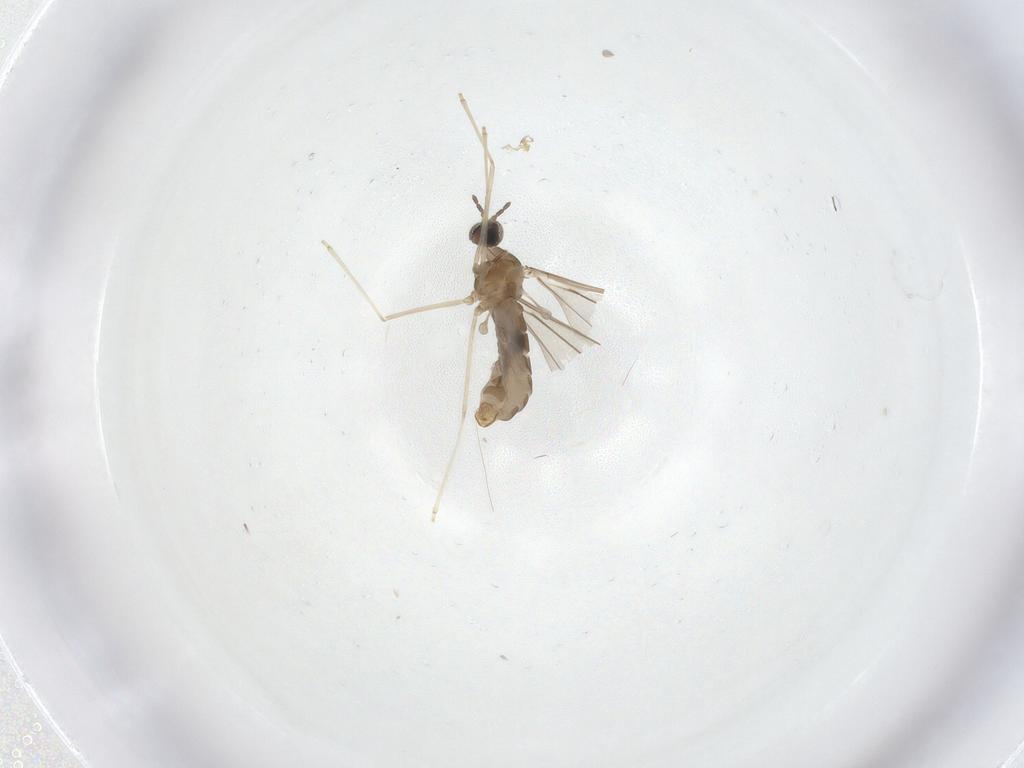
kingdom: Animalia
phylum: Arthropoda
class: Insecta
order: Diptera
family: Cecidomyiidae
